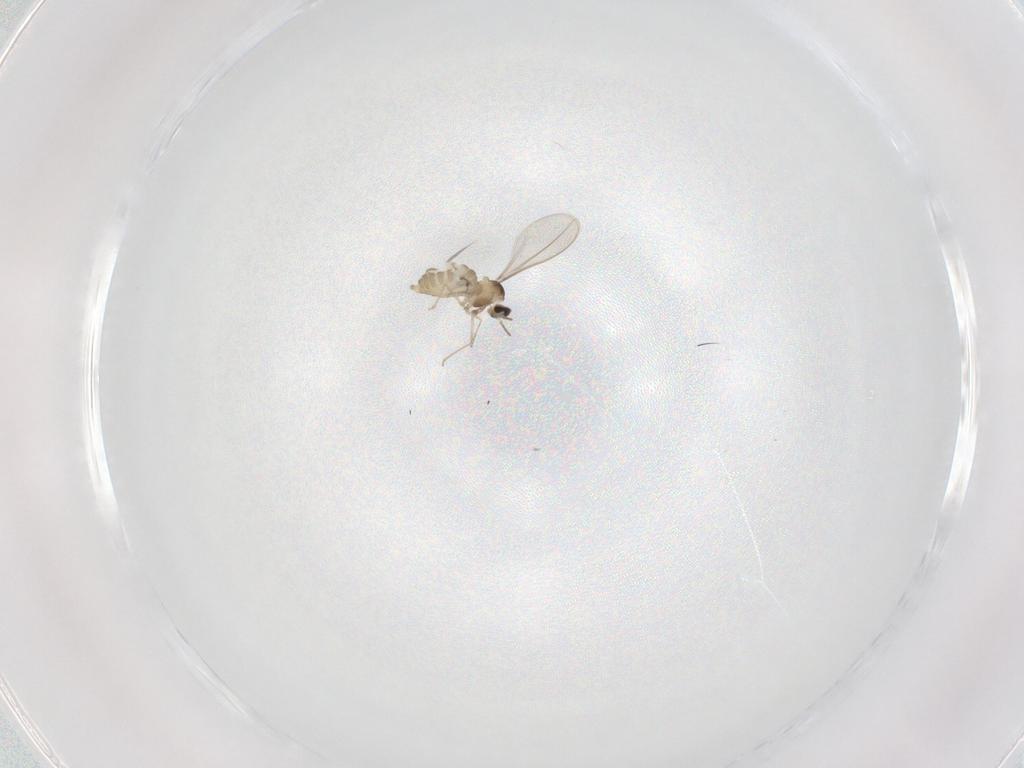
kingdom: Animalia
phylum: Arthropoda
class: Insecta
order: Diptera
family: Cecidomyiidae
